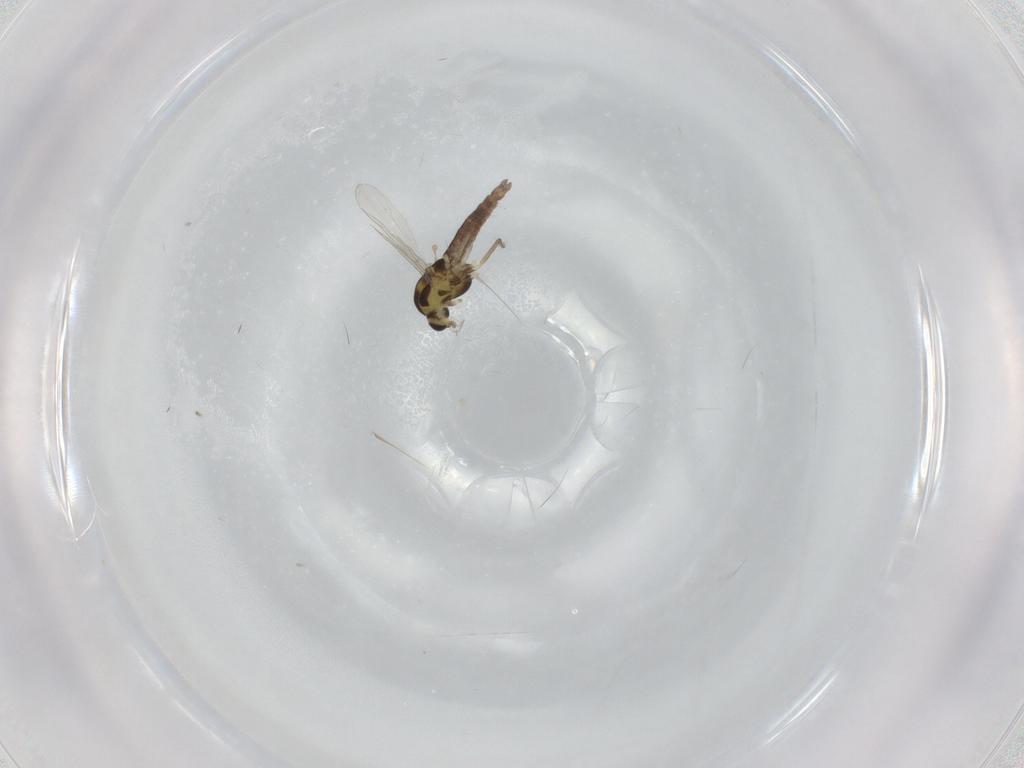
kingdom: Animalia
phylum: Arthropoda
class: Insecta
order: Diptera
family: Chironomidae
